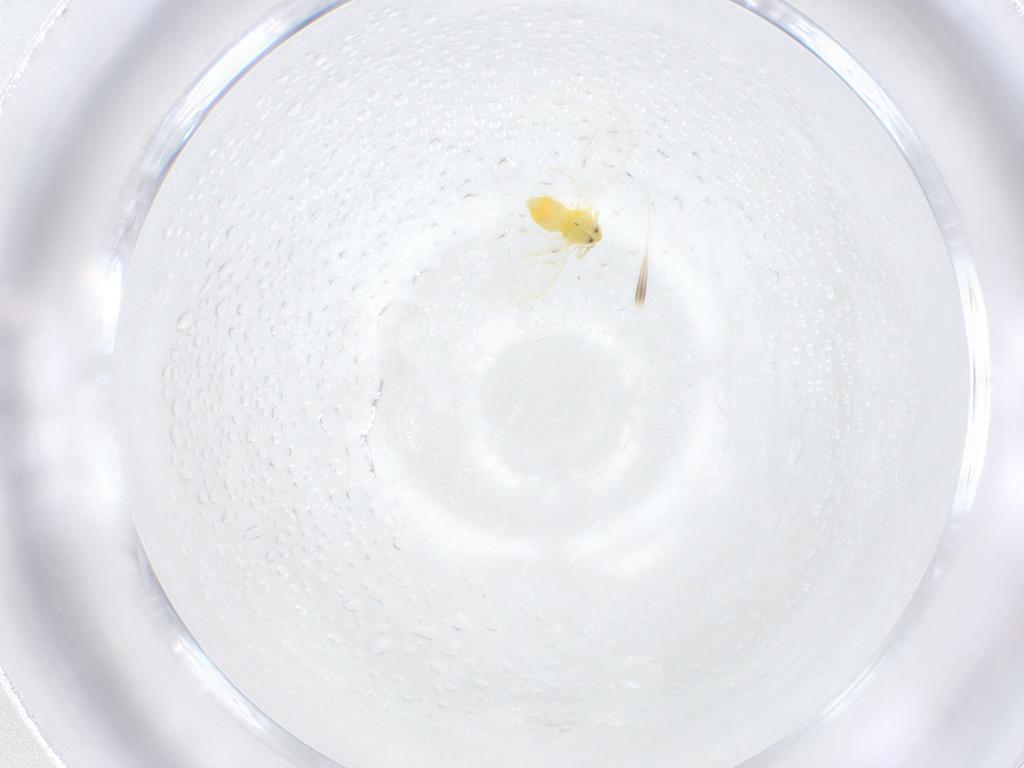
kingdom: Animalia
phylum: Arthropoda
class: Insecta
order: Hemiptera
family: Cicadellidae
